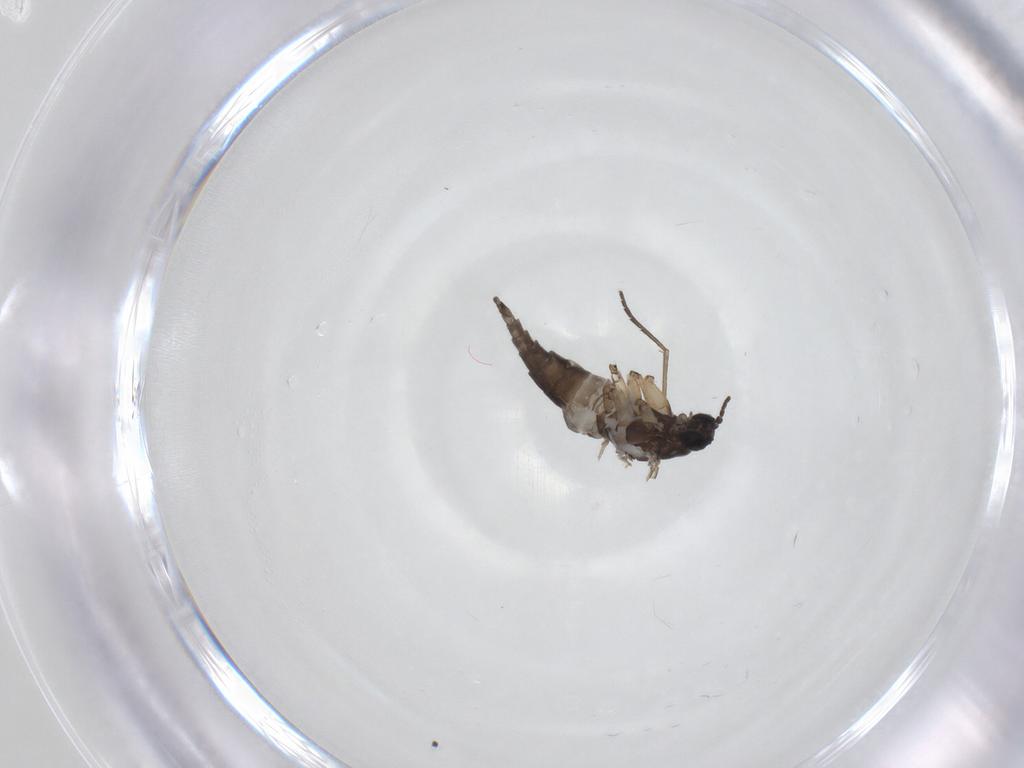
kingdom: Animalia
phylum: Arthropoda
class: Insecta
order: Diptera
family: Sciaridae
